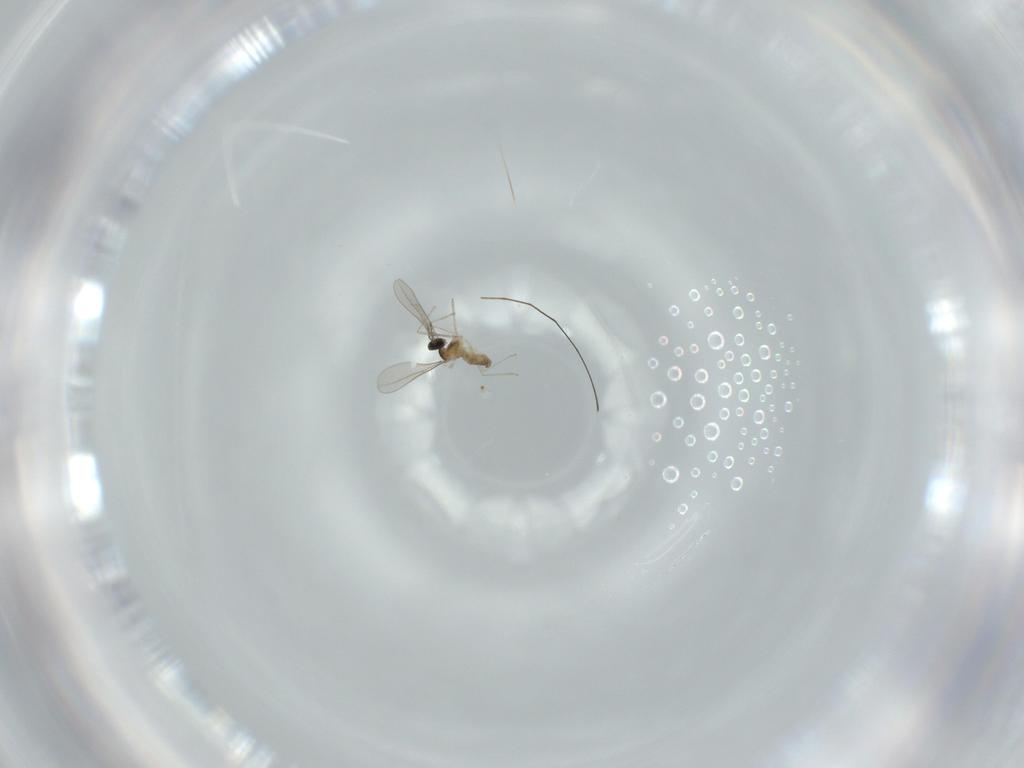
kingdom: Animalia
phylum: Arthropoda
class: Insecta
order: Diptera
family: Cecidomyiidae
